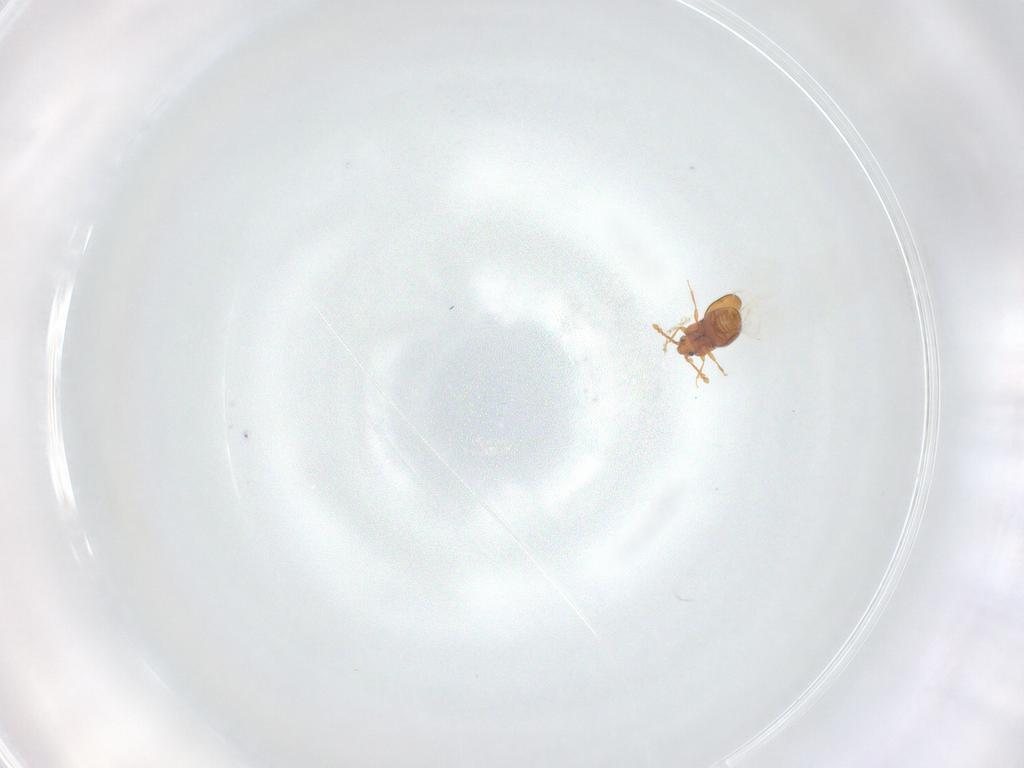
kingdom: Animalia
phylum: Arthropoda
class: Insecta
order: Coleoptera
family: Staphylinidae
